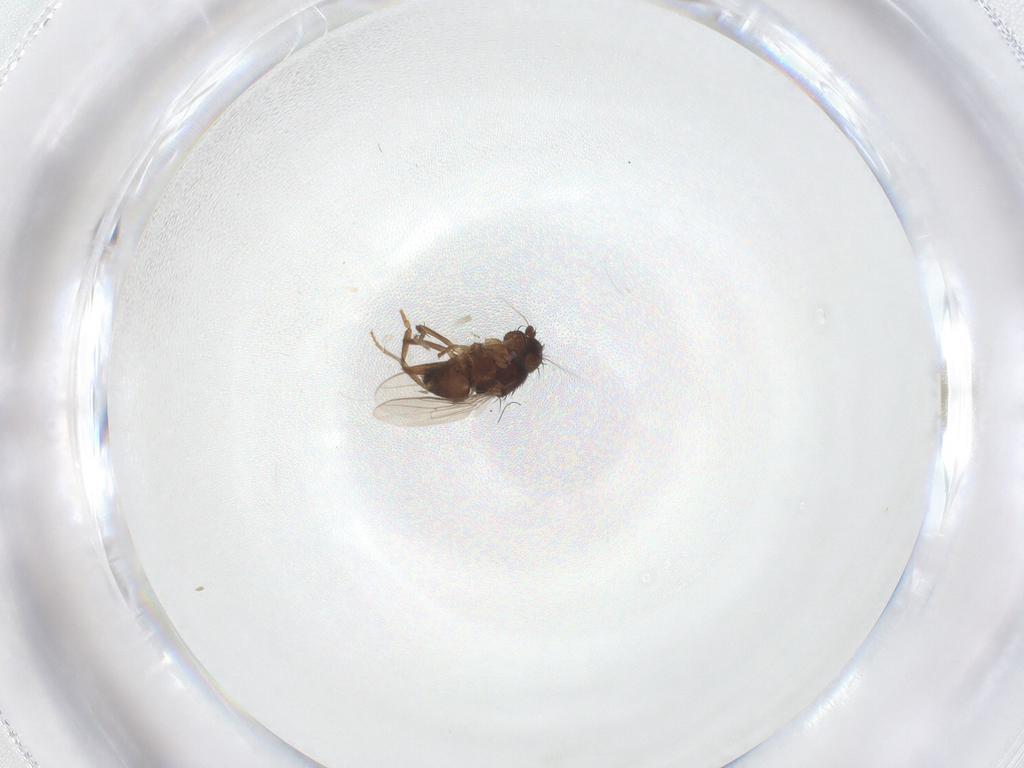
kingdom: Animalia
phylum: Arthropoda
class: Insecta
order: Diptera
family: Sphaeroceridae
